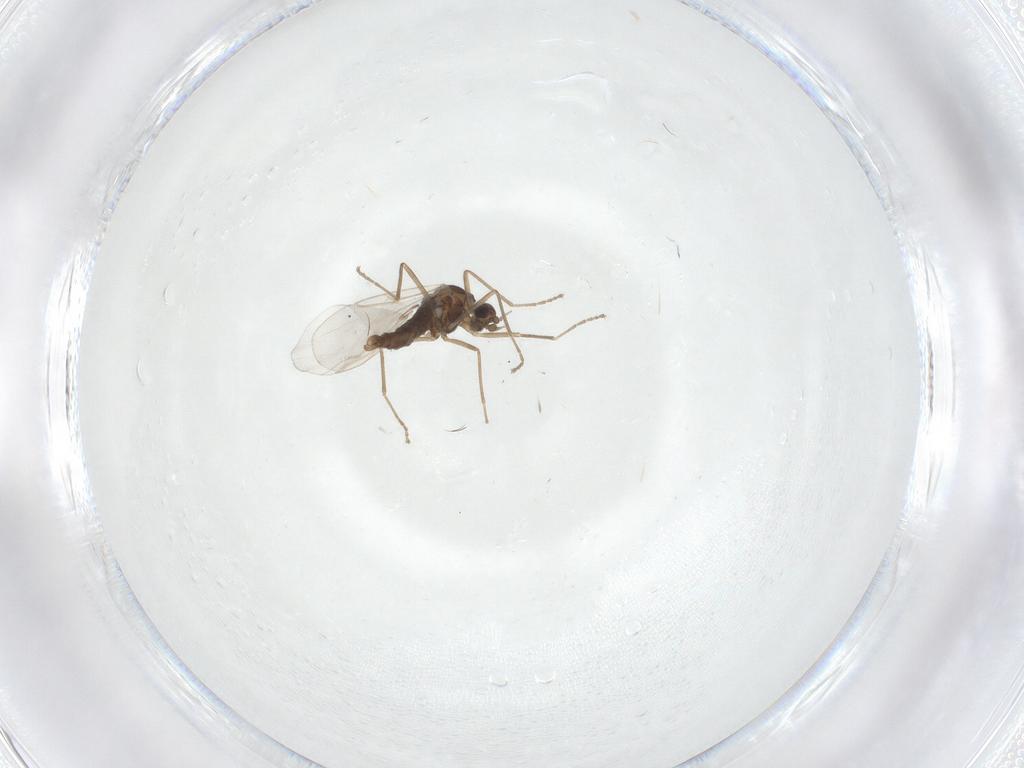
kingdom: Animalia
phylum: Arthropoda
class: Insecta
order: Diptera
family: Cecidomyiidae
